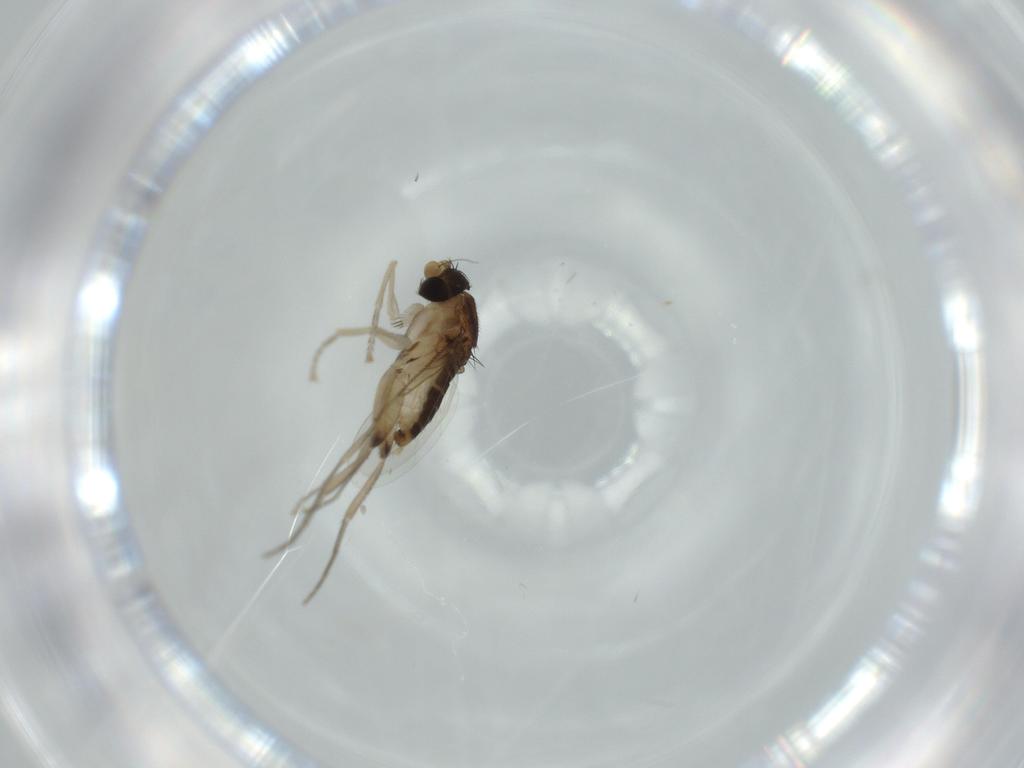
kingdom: Animalia
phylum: Arthropoda
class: Insecta
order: Diptera
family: Phoridae
